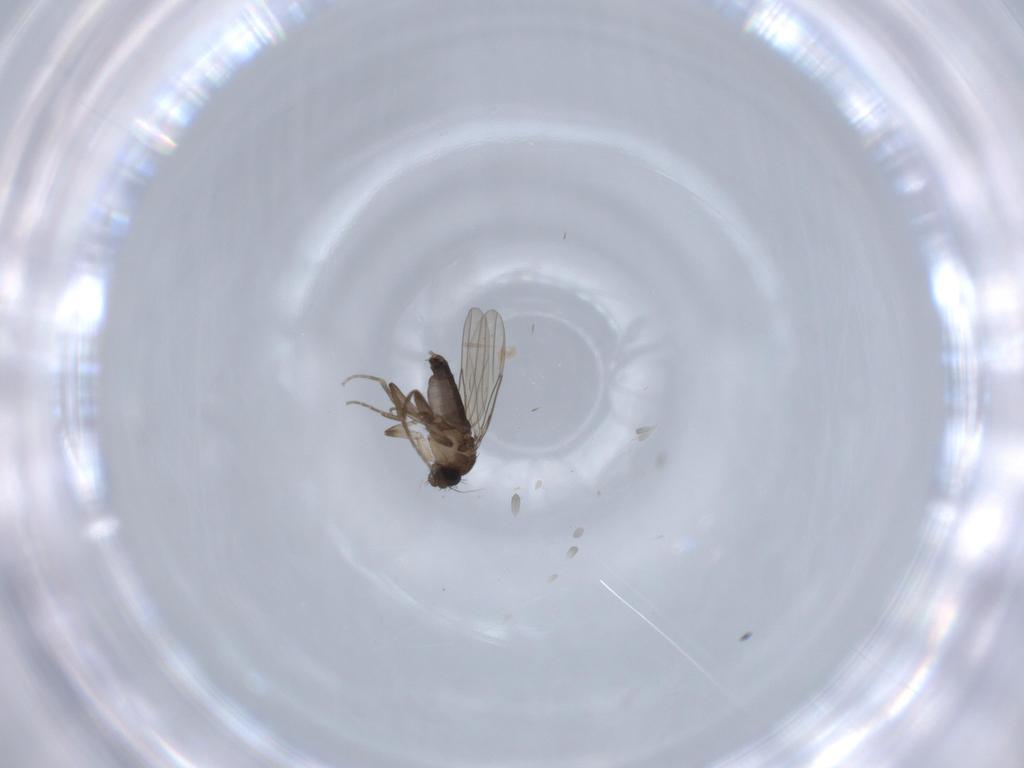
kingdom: Animalia
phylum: Arthropoda
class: Insecta
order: Diptera
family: Phoridae
